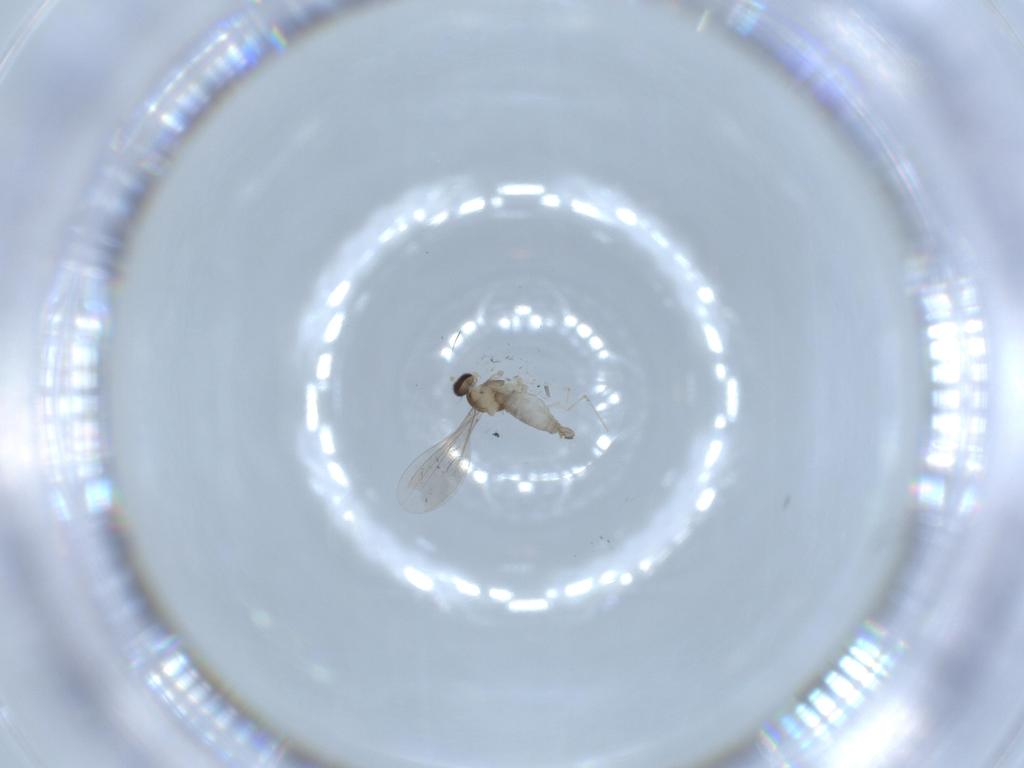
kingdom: Animalia
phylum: Arthropoda
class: Insecta
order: Diptera
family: Cecidomyiidae
